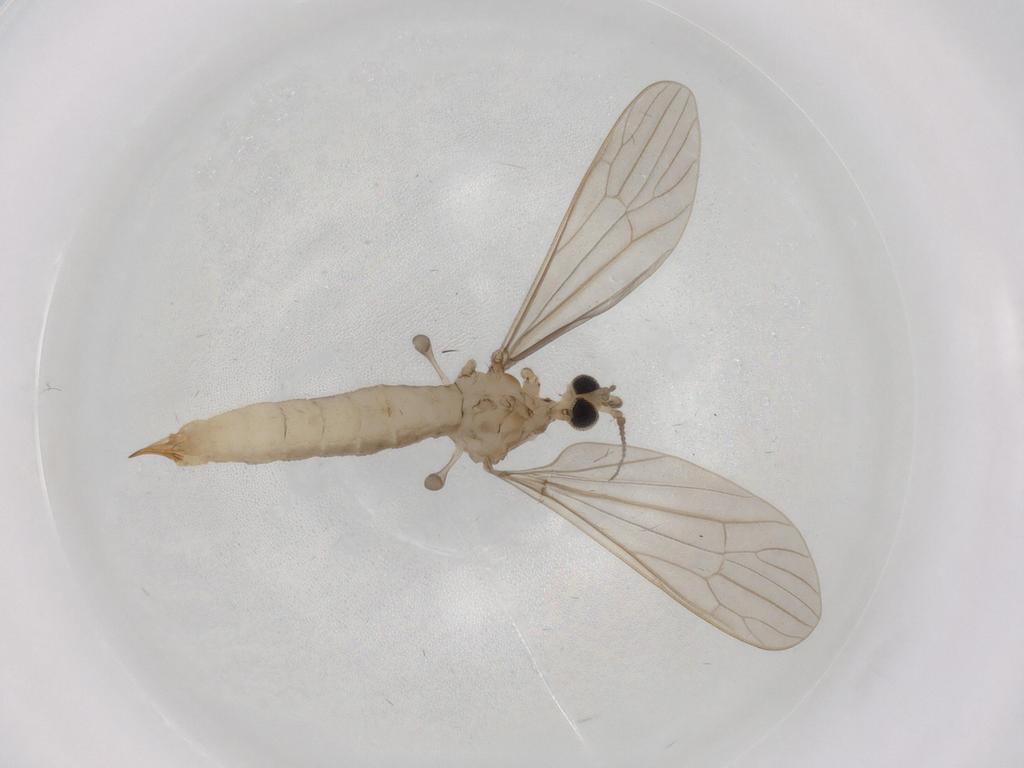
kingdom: Animalia
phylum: Arthropoda
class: Insecta
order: Diptera
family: Limoniidae
